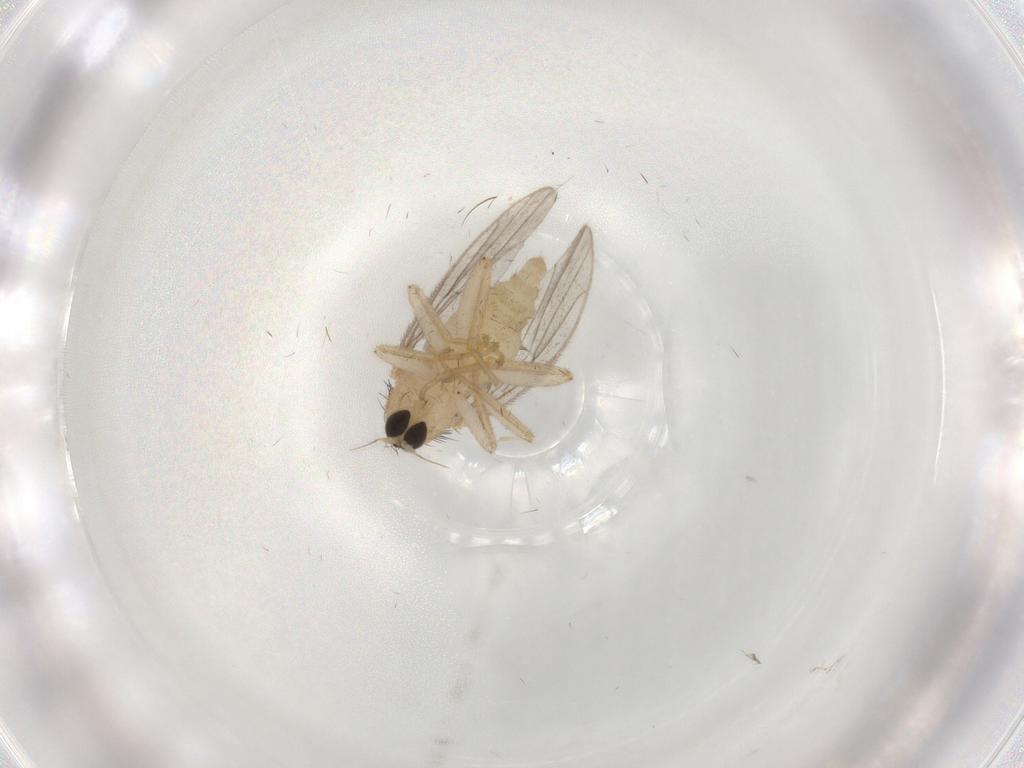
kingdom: Animalia
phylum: Arthropoda
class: Insecta
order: Diptera
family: Hybotidae
